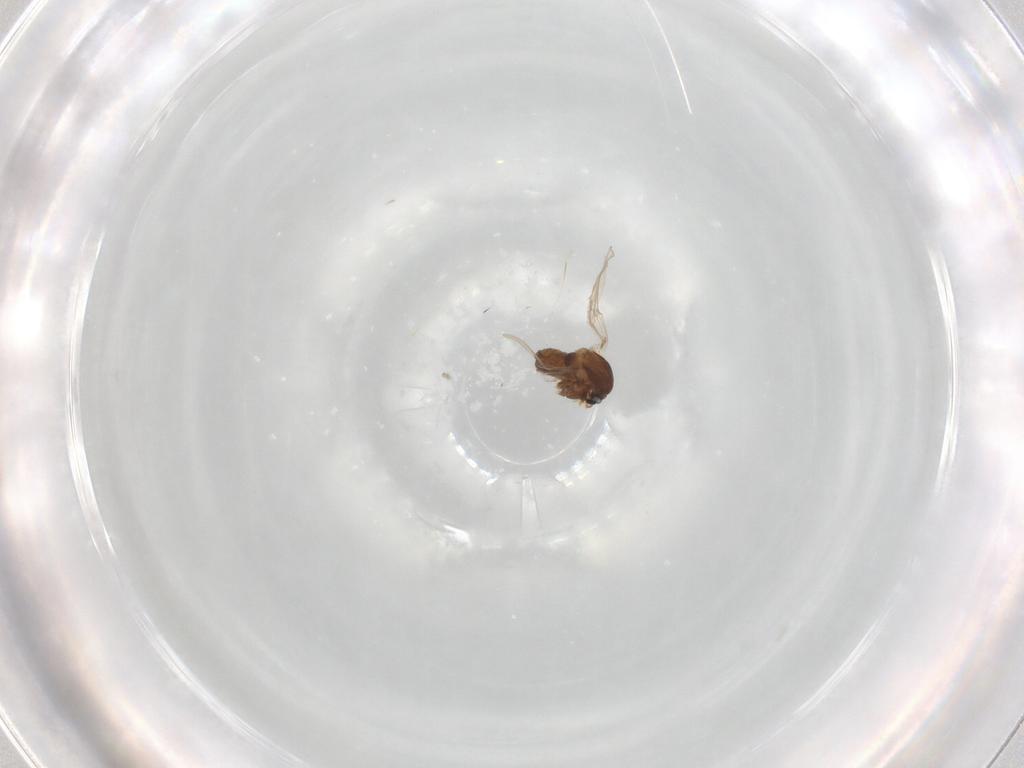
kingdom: Animalia
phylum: Arthropoda
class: Insecta
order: Diptera
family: Chironomidae
